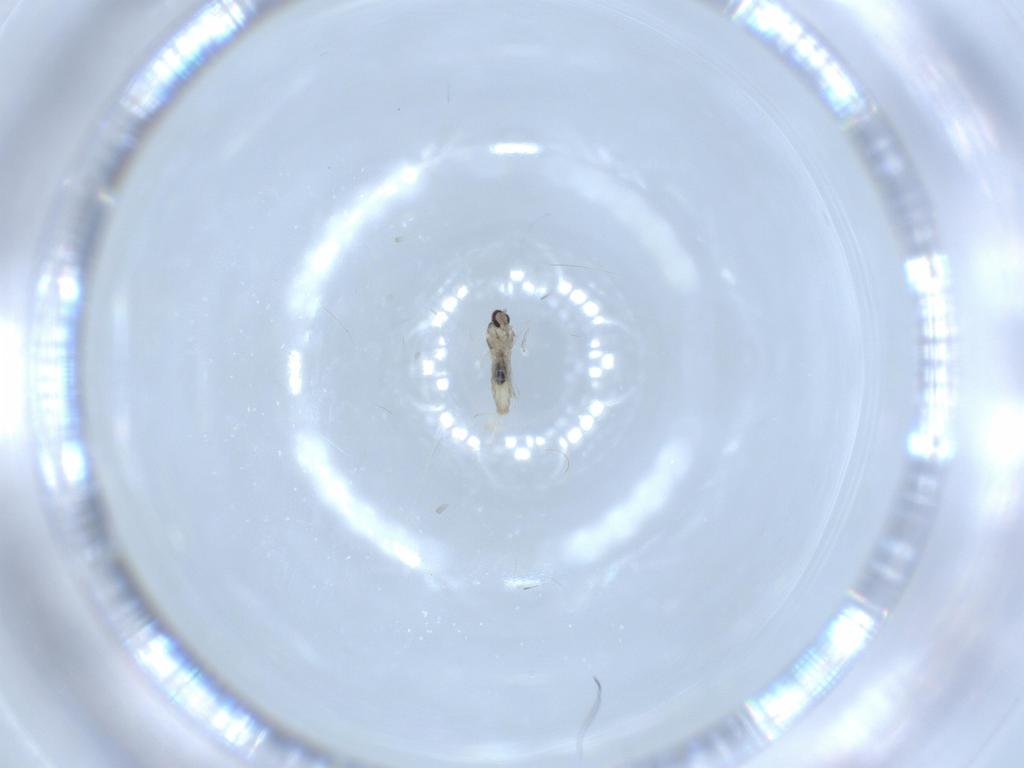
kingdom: Animalia
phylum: Arthropoda
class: Insecta
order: Diptera
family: Cecidomyiidae
